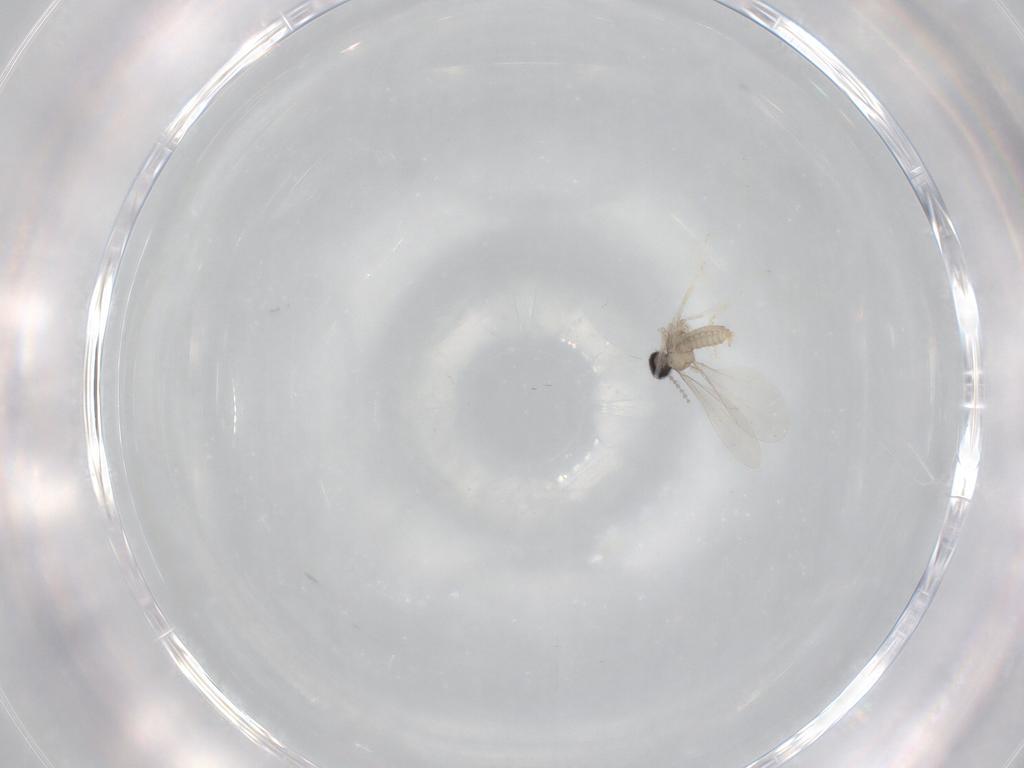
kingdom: Animalia
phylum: Arthropoda
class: Insecta
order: Diptera
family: Cecidomyiidae
